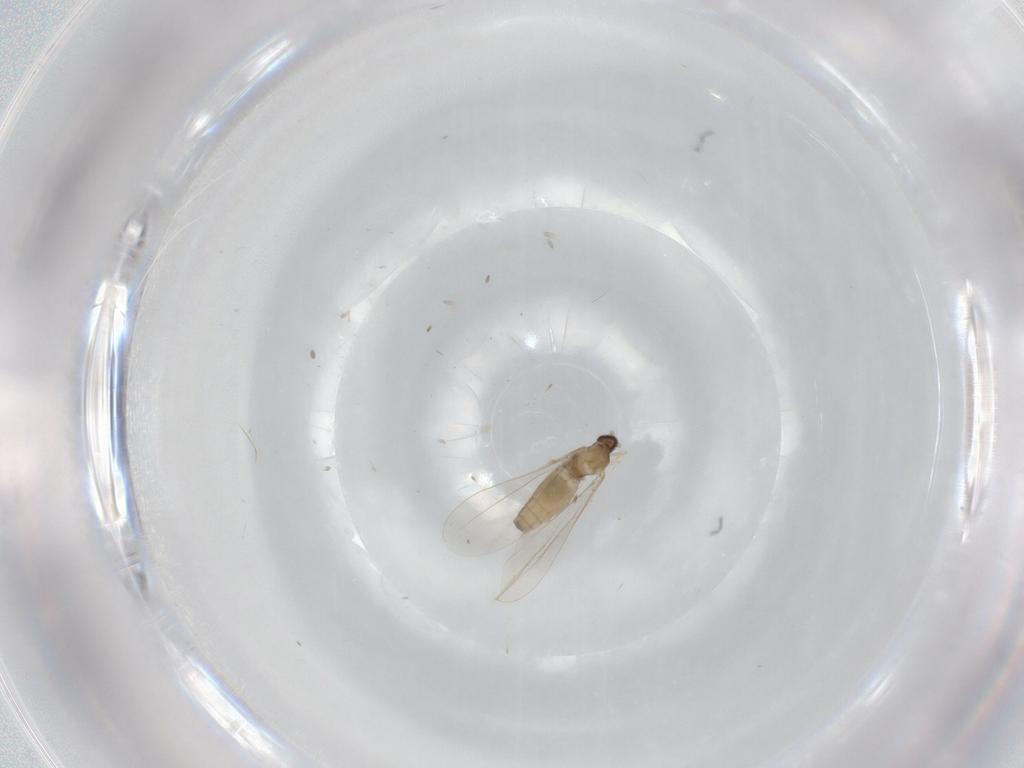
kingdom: Animalia
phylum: Arthropoda
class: Insecta
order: Diptera
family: Cecidomyiidae
